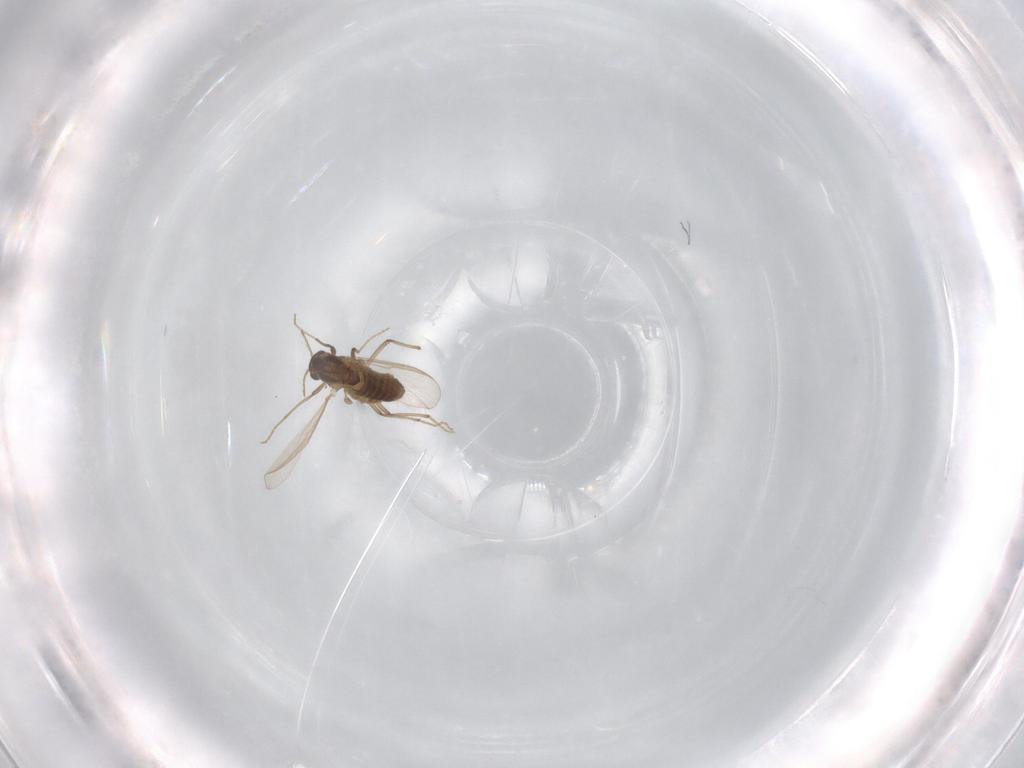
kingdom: Animalia
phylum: Arthropoda
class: Insecta
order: Diptera
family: Chironomidae
